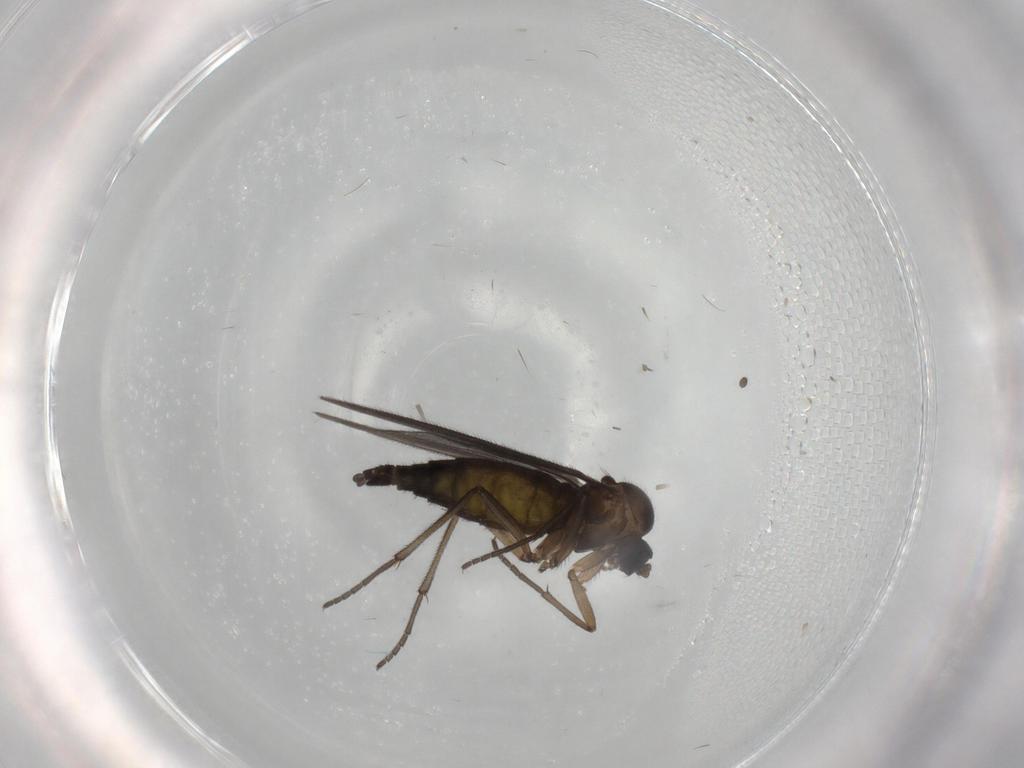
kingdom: Animalia
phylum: Arthropoda
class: Insecta
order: Diptera
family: Sciaridae
